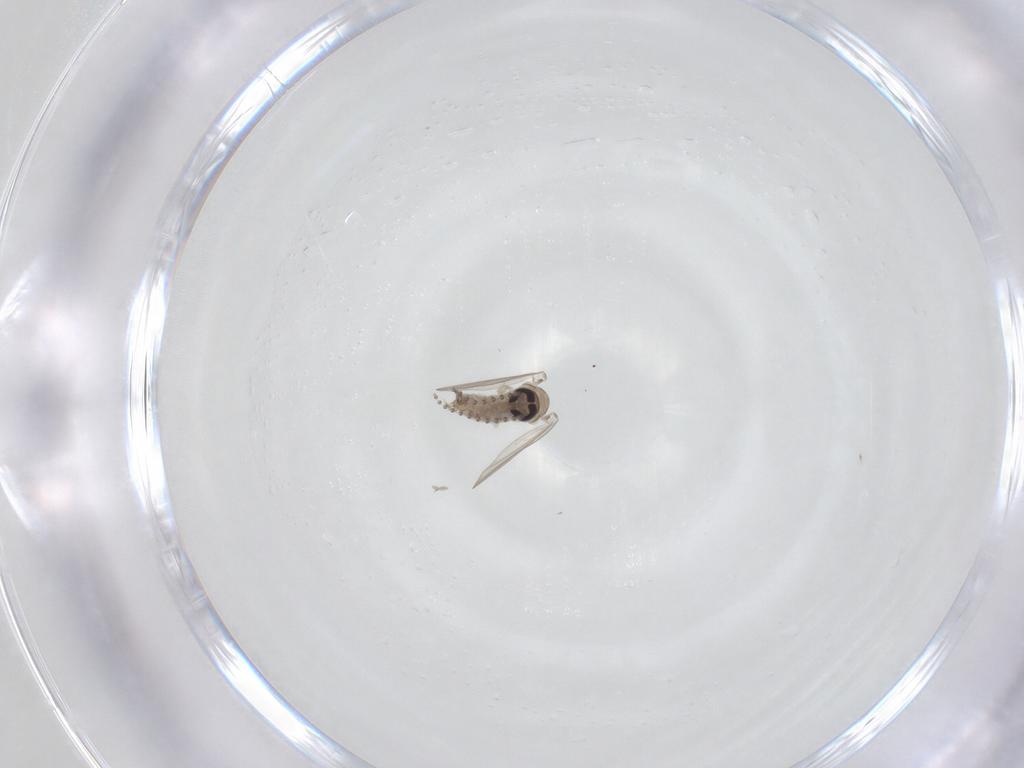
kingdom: Animalia
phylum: Arthropoda
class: Insecta
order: Diptera
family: Psychodidae
